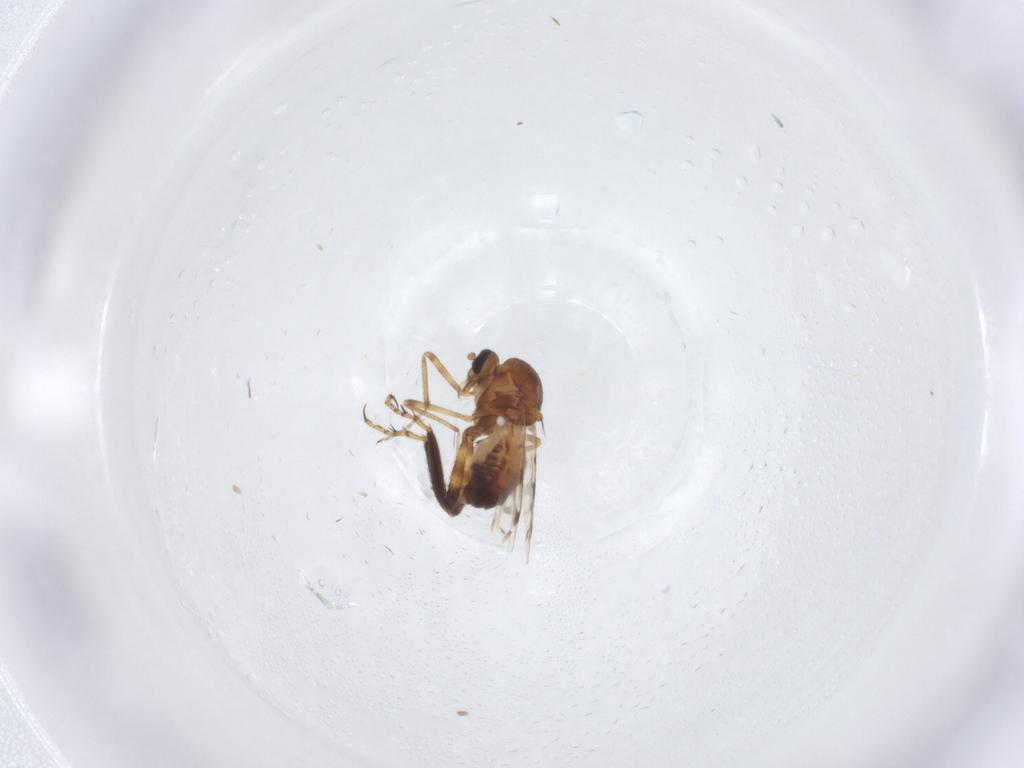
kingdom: Animalia
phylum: Arthropoda
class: Insecta
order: Diptera
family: Ceratopogonidae
